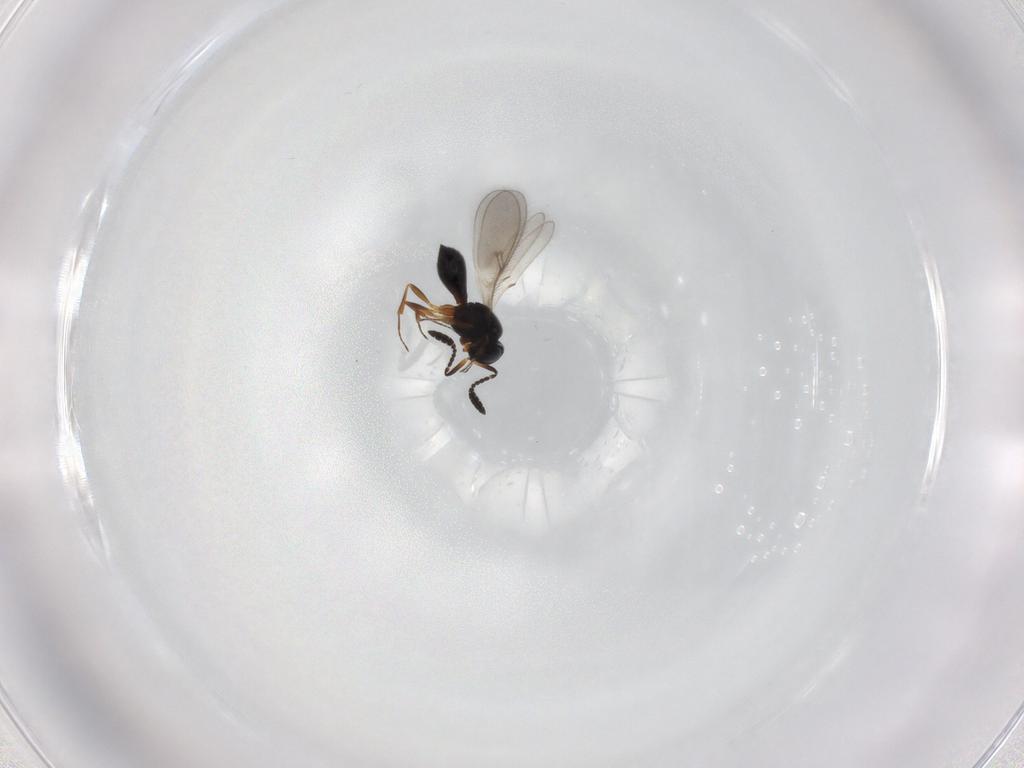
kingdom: Animalia
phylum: Arthropoda
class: Insecta
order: Hymenoptera
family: Scelionidae
